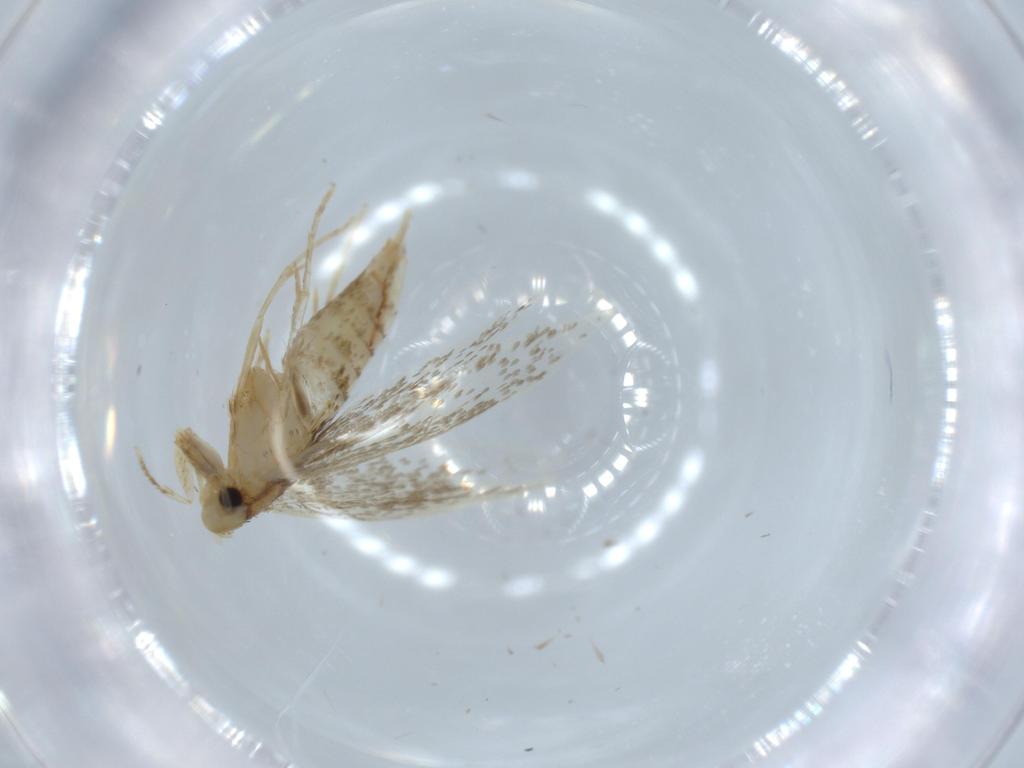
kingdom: Animalia
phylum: Arthropoda
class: Insecta
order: Lepidoptera
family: Tineidae
